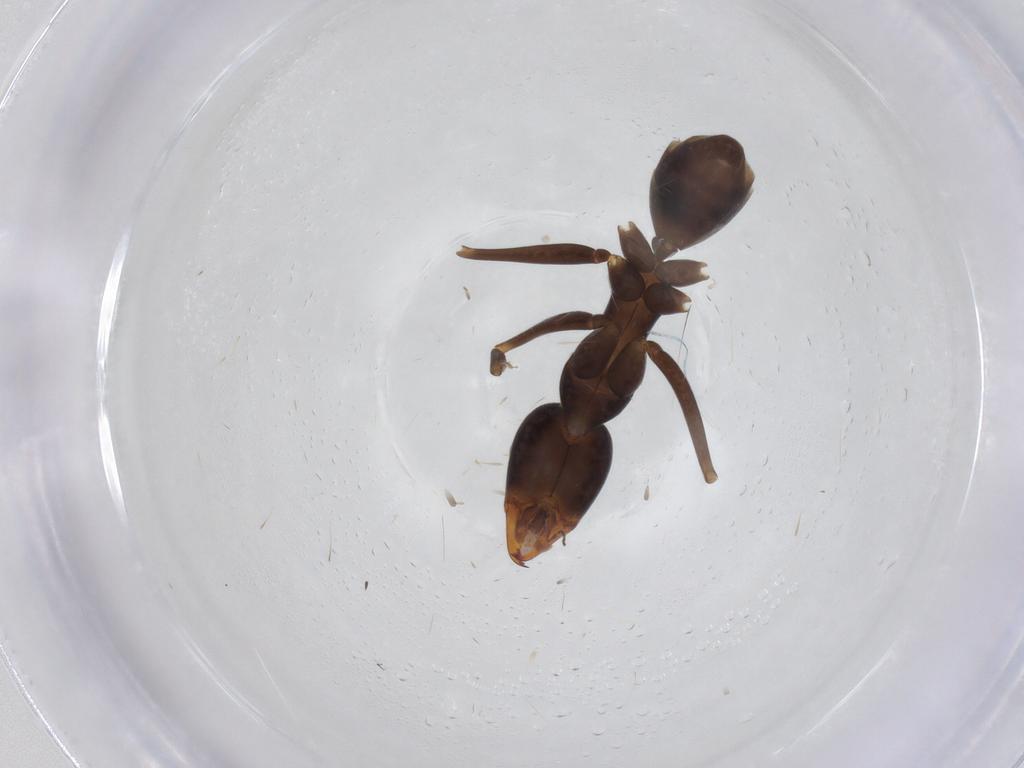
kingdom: Animalia
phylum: Arthropoda
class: Insecta
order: Hymenoptera
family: Formicidae
